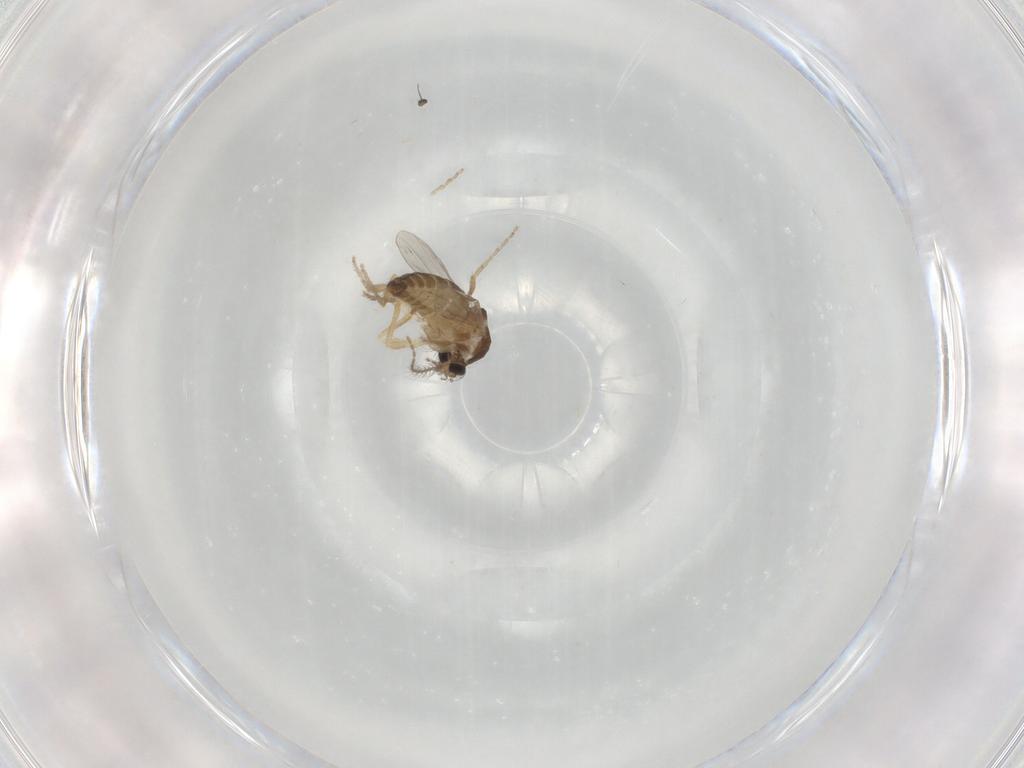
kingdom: Animalia
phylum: Arthropoda
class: Insecta
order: Diptera
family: Ceratopogonidae
